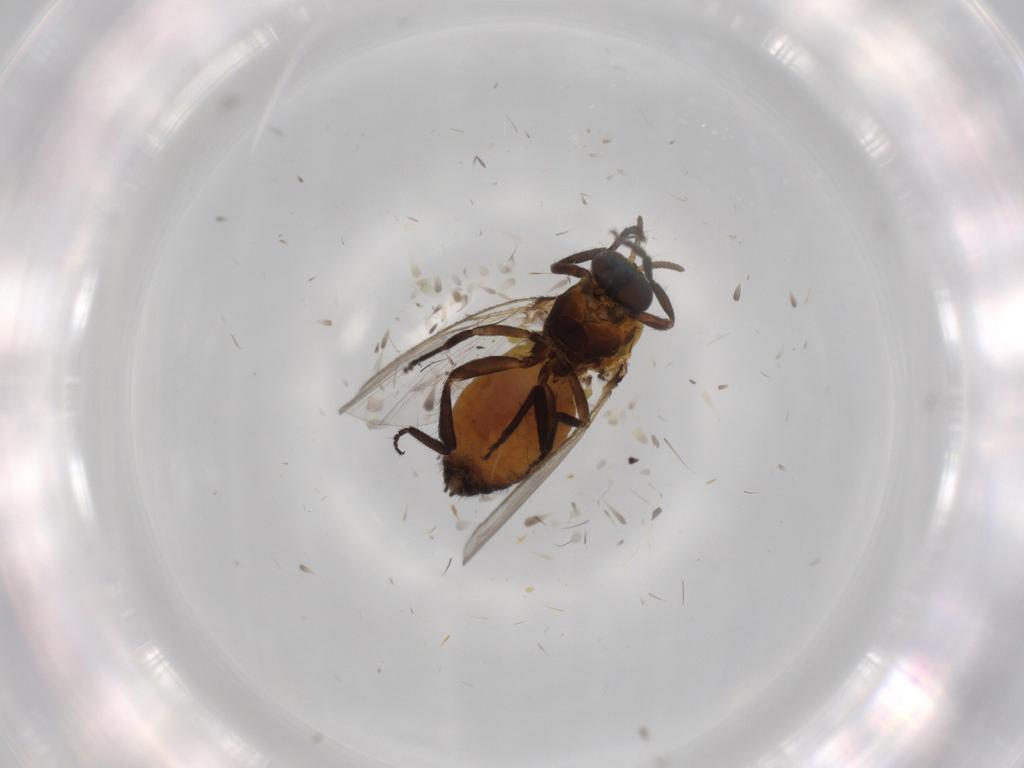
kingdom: Animalia
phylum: Arthropoda
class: Insecta
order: Diptera
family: Cecidomyiidae
